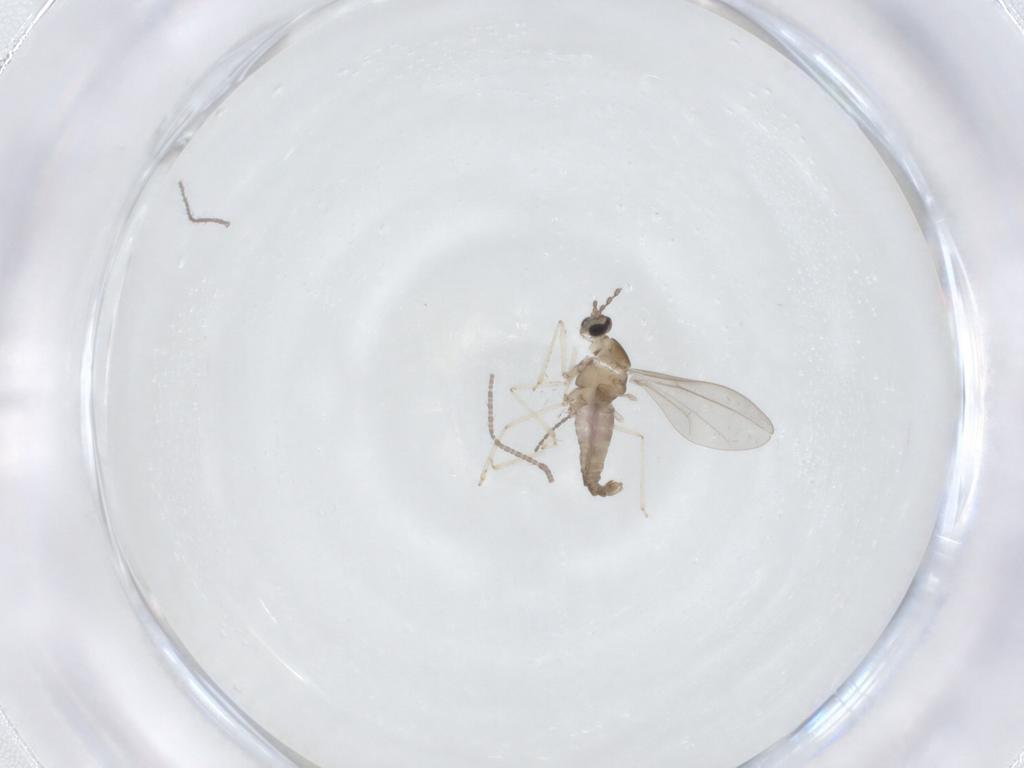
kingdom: Animalia
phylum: Arthropoda
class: Insecta
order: Diptera
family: Cecidomyiidae
